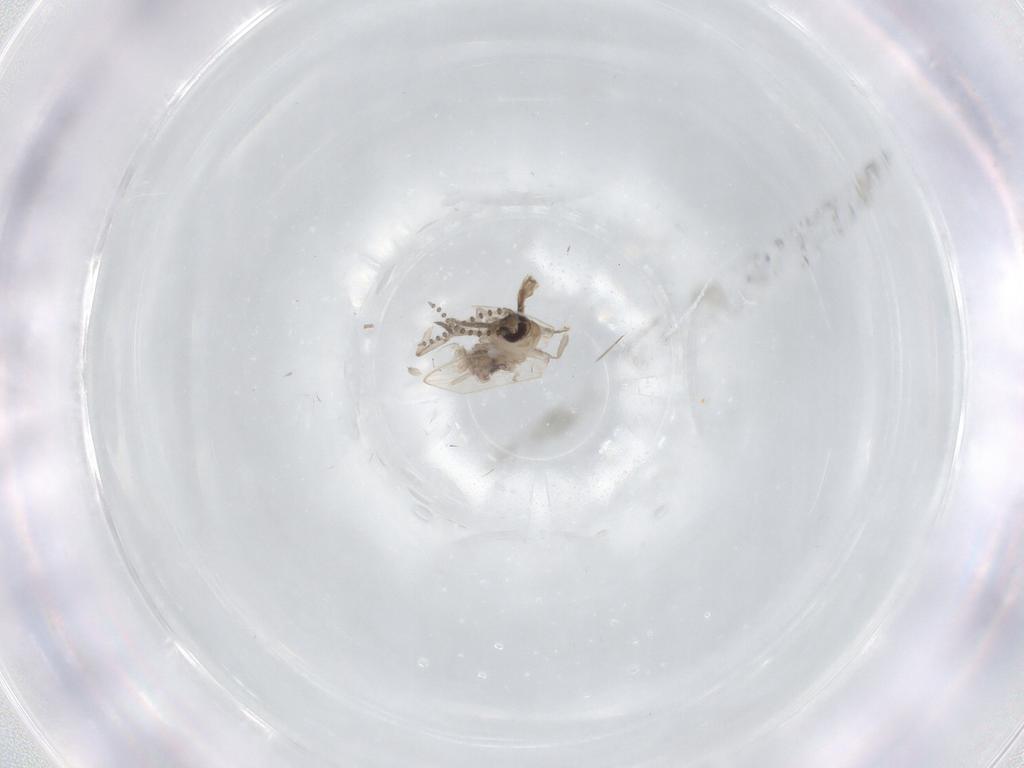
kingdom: Animalia
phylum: Arthropoda
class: Insecta
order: Diptera
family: Psychodidae
